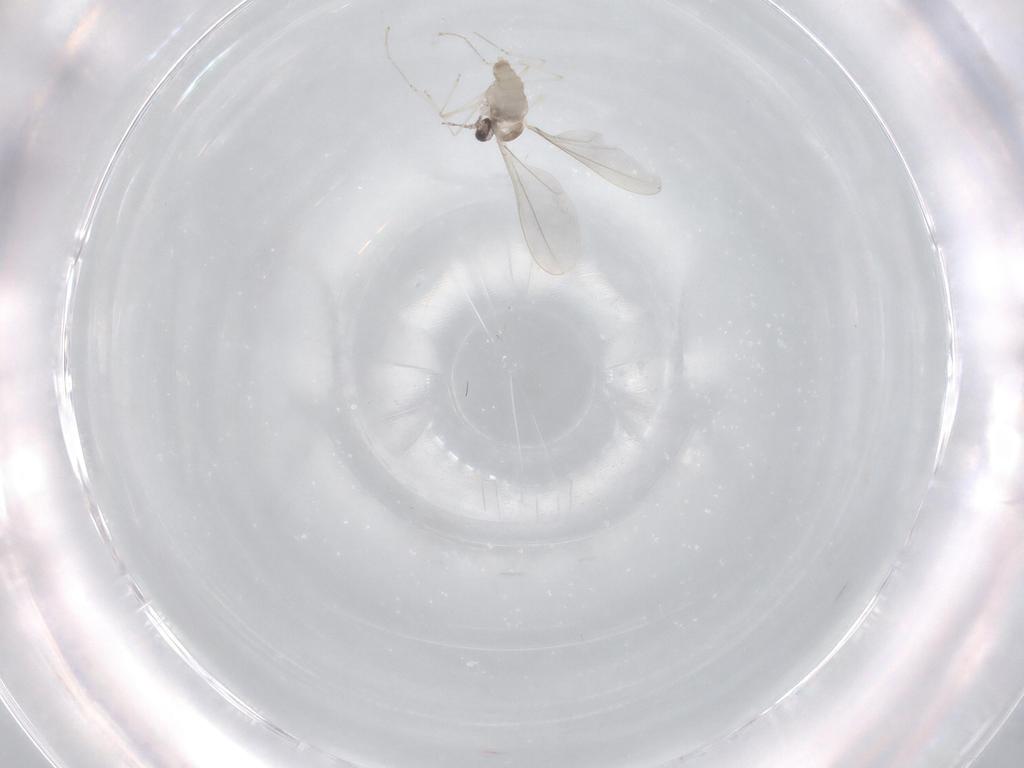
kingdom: Animalia
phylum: Arthropoda
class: Insecta
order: Diptera
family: Cecidomyiidae
